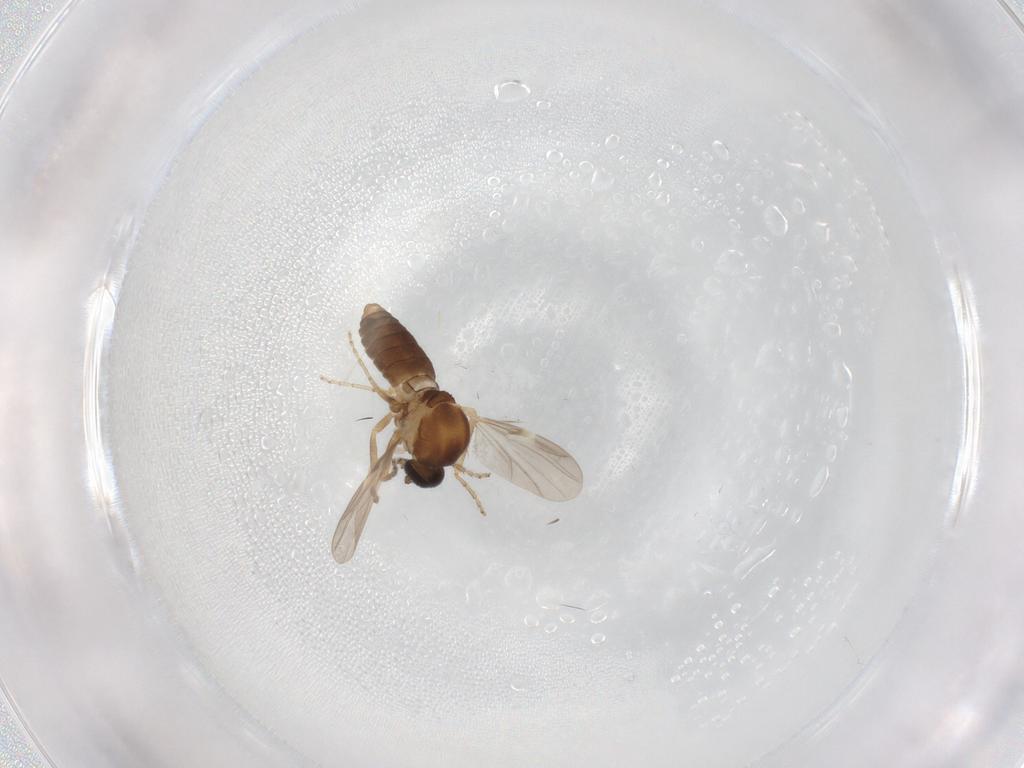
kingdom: Animalia
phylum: Arthropoda
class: Insecta
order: Diptera
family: Ceratopogonidae
